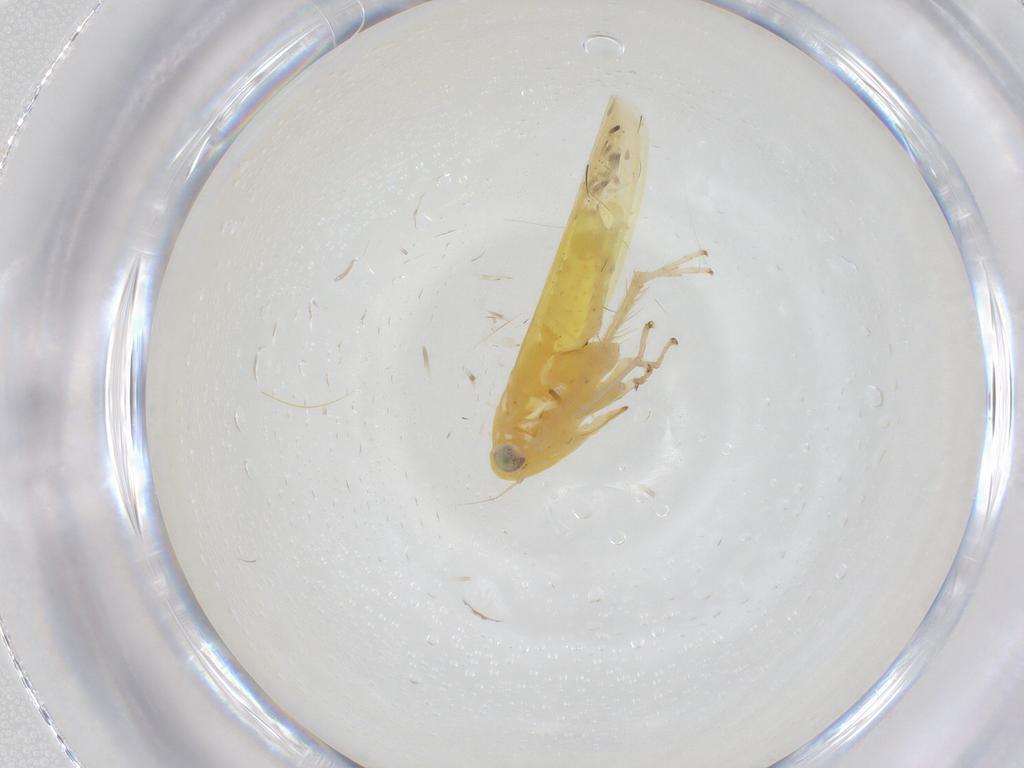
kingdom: Animalia
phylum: Arthropoda
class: Insecta
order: Hemiptera
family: Cicadellidae
